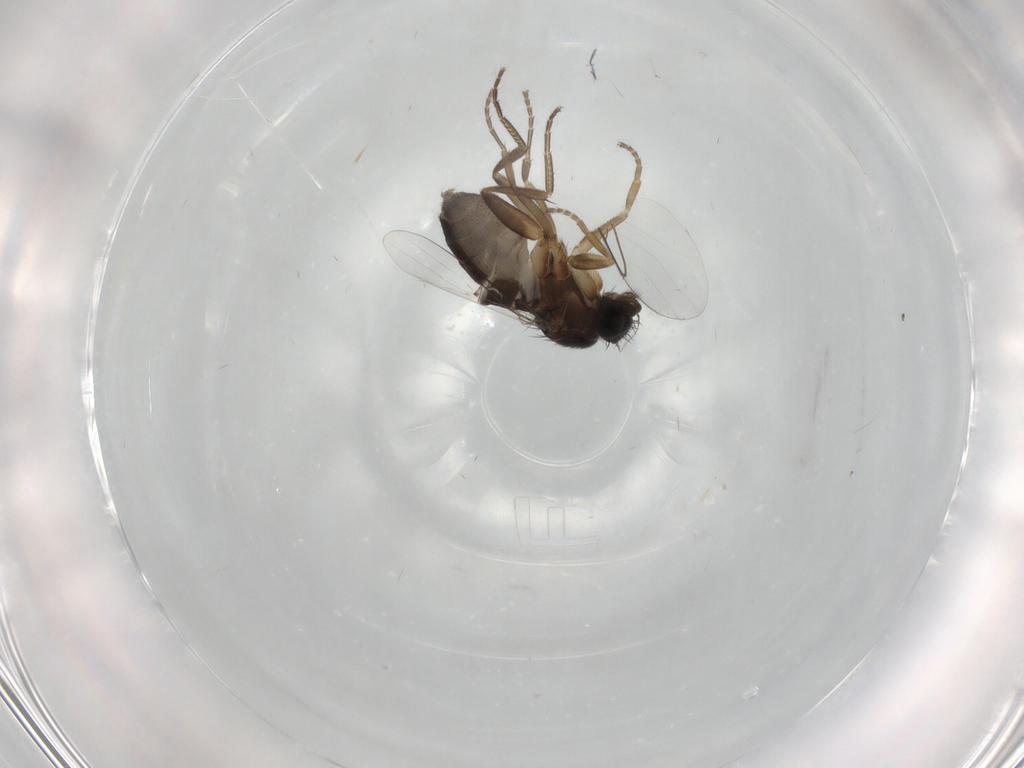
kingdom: Animalia
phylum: Arthropoda
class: Insecta
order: Diptera
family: Phoridae
